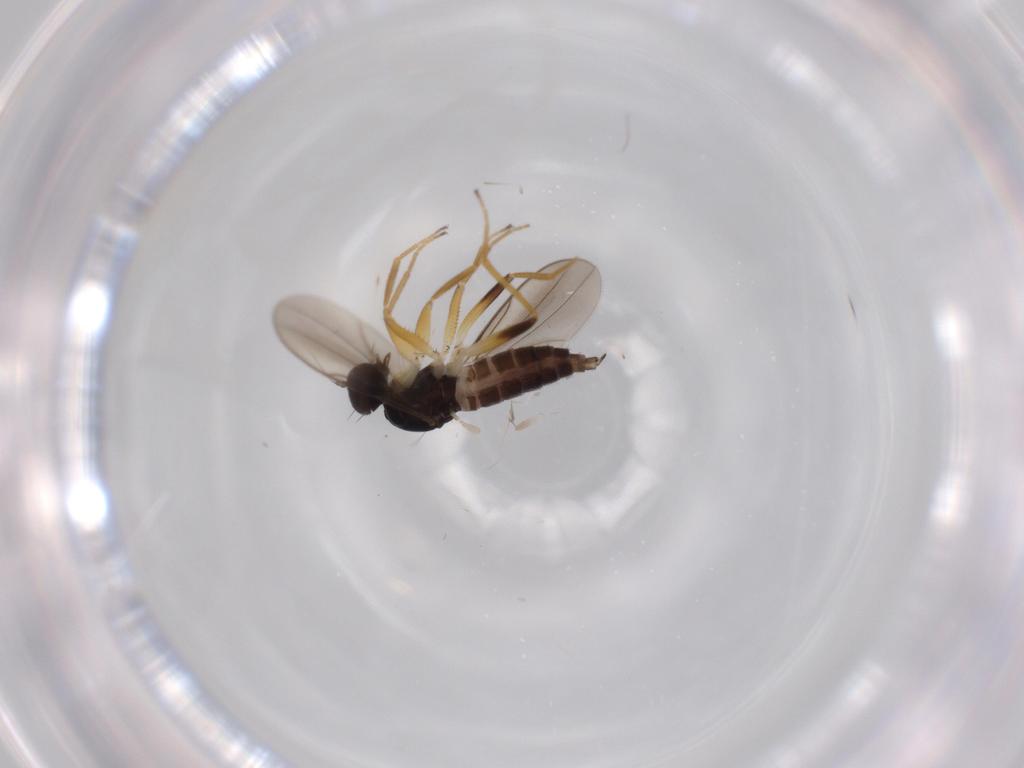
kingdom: Animalia
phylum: Arthropoda
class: Insecta
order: Diptera
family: Hybotidae
